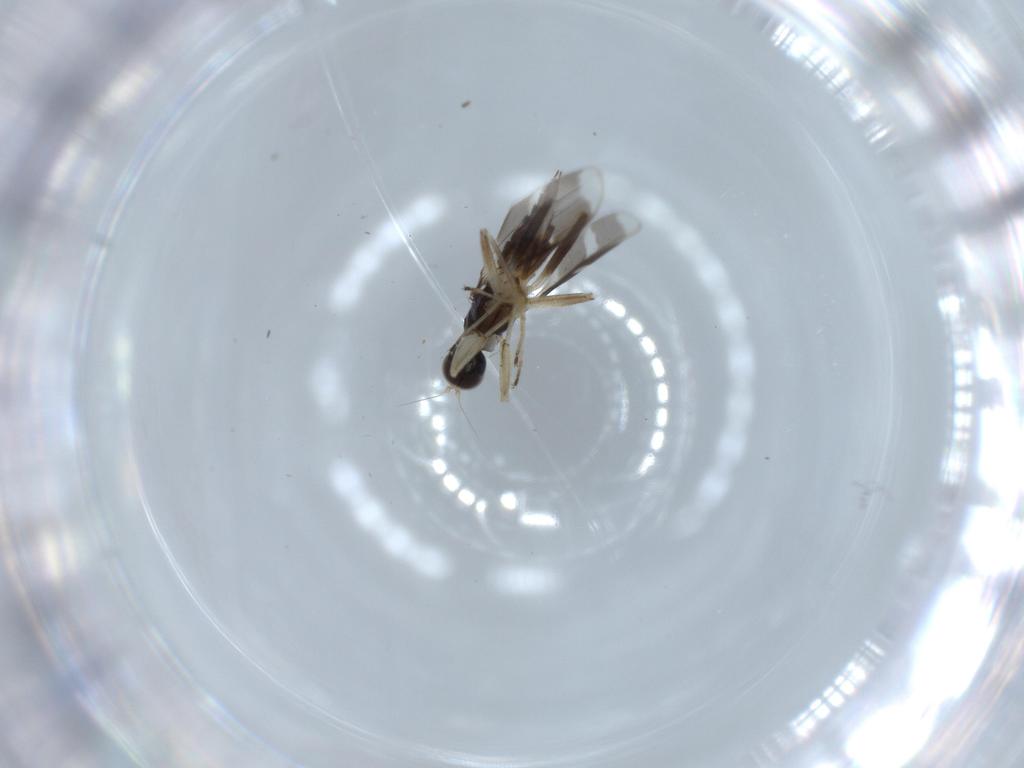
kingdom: Animalia
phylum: Arthropoda
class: Insecta
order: Diptera
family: Hybotidae
